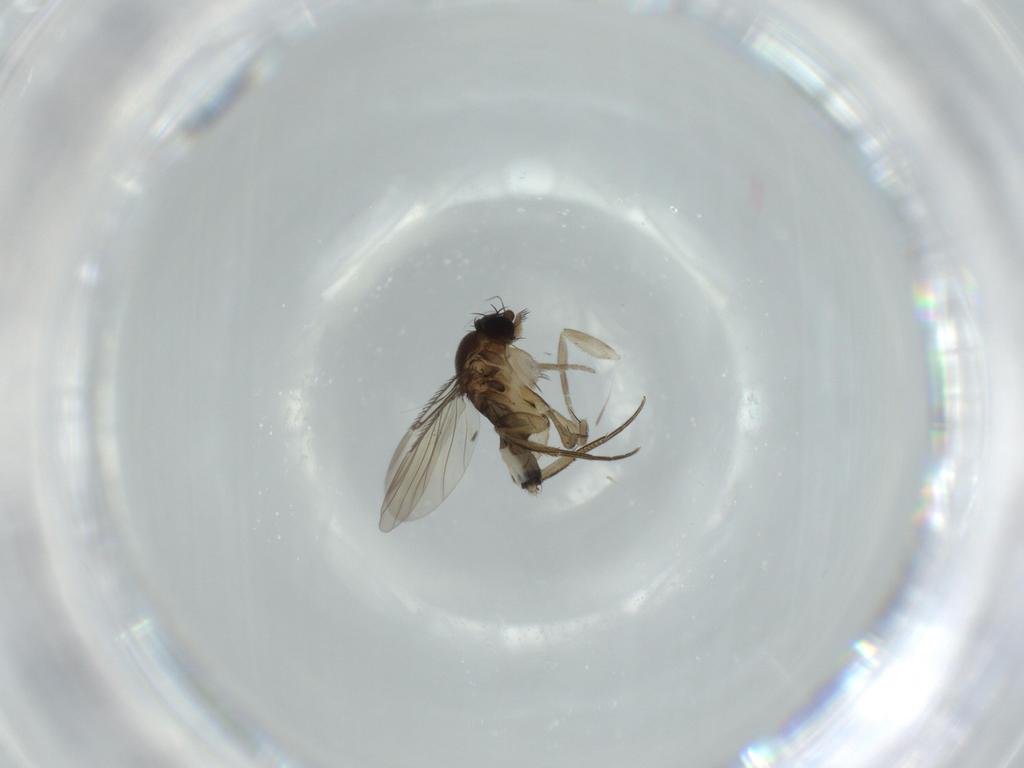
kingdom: Animalia
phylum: Arthropoda
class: Insecta
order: Diptera
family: Phoridae
